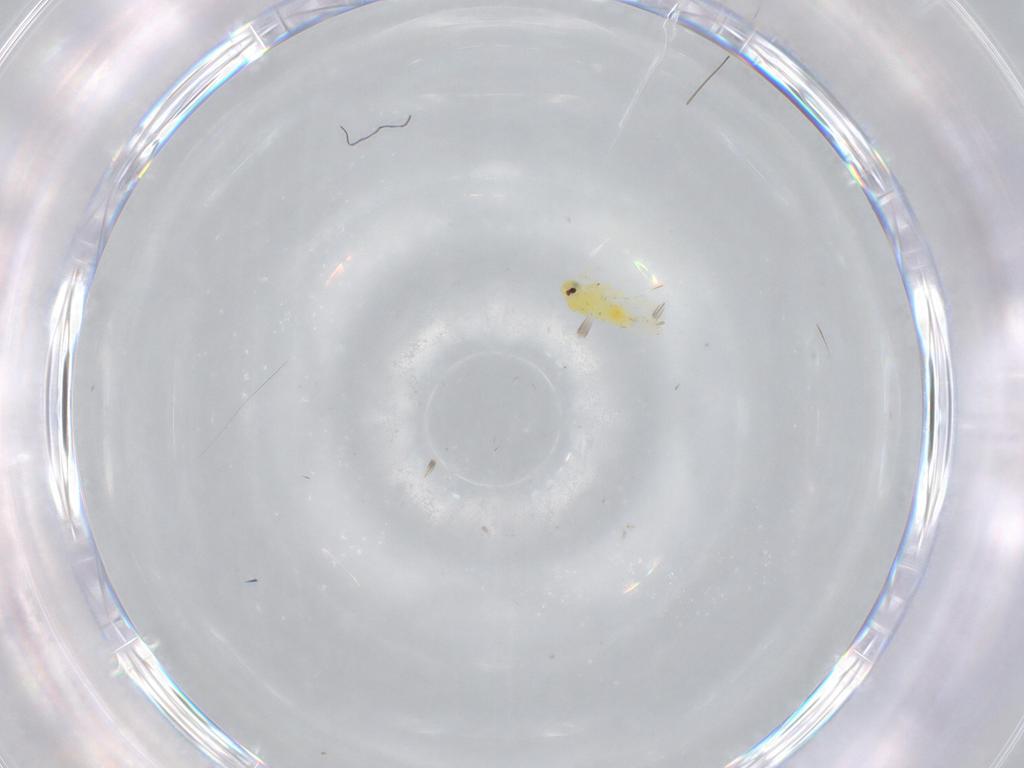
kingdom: Animalia
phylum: Arthropoda
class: Insecta
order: Hemiptera
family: Aleyrodidae
